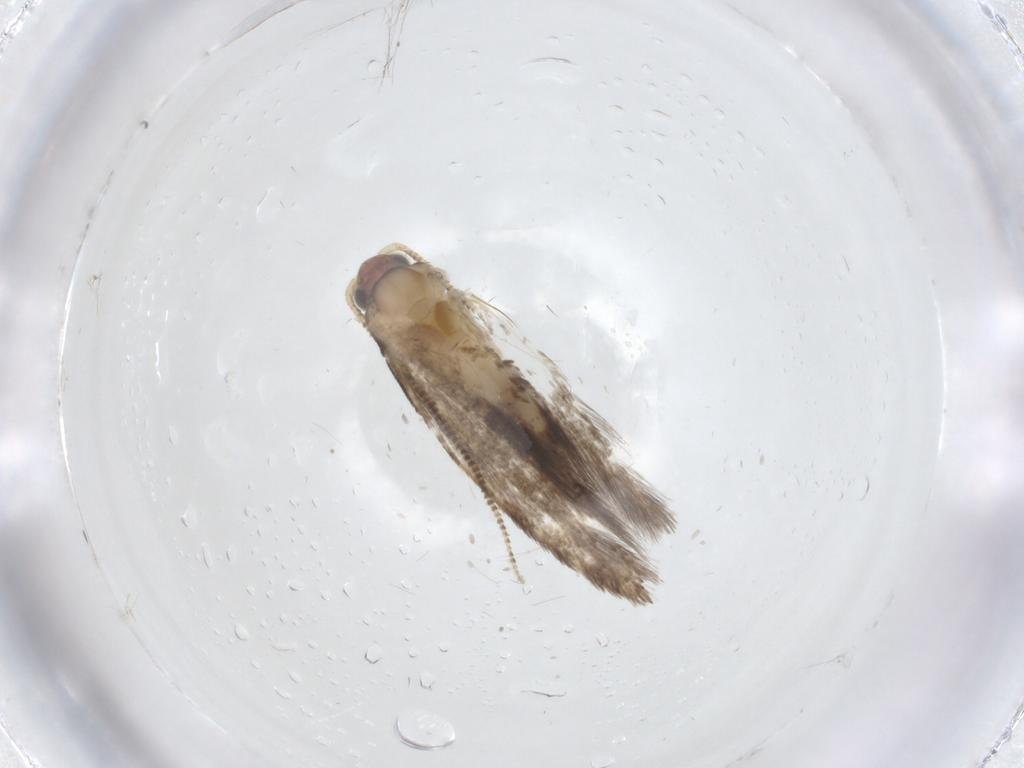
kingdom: Animalia
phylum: Arthropoda
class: Insecta
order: Lepidoptera
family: Tineidae
